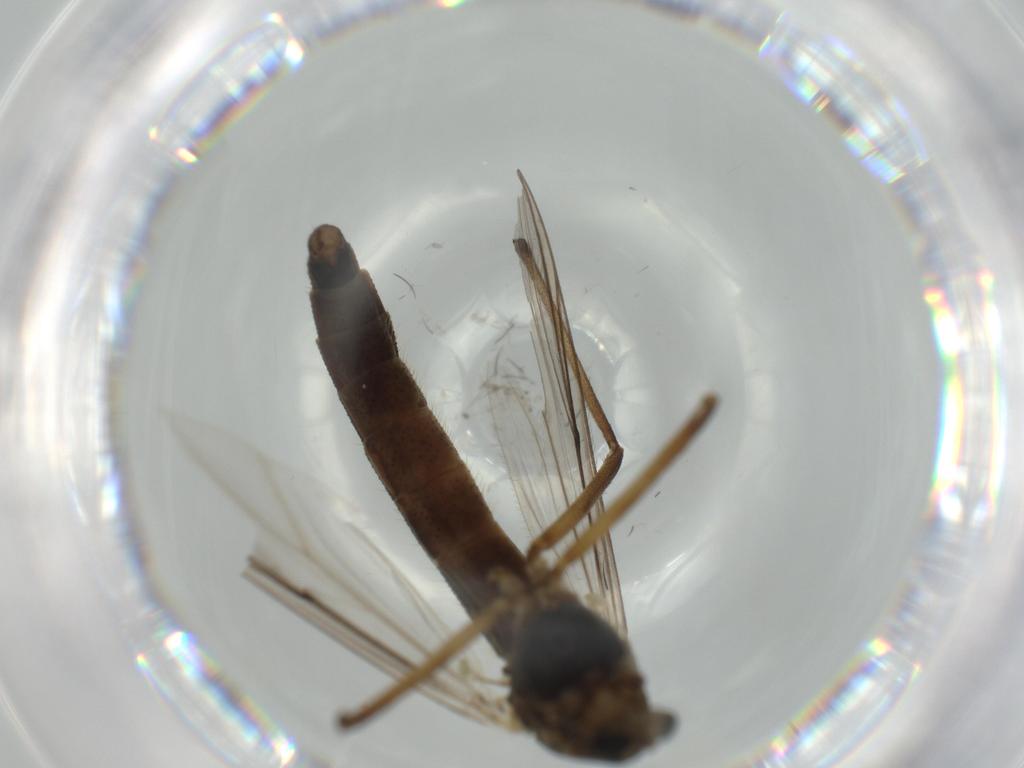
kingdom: Animalia
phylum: Arthropoda
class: Insecta
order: Diptera
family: Chironomidae
